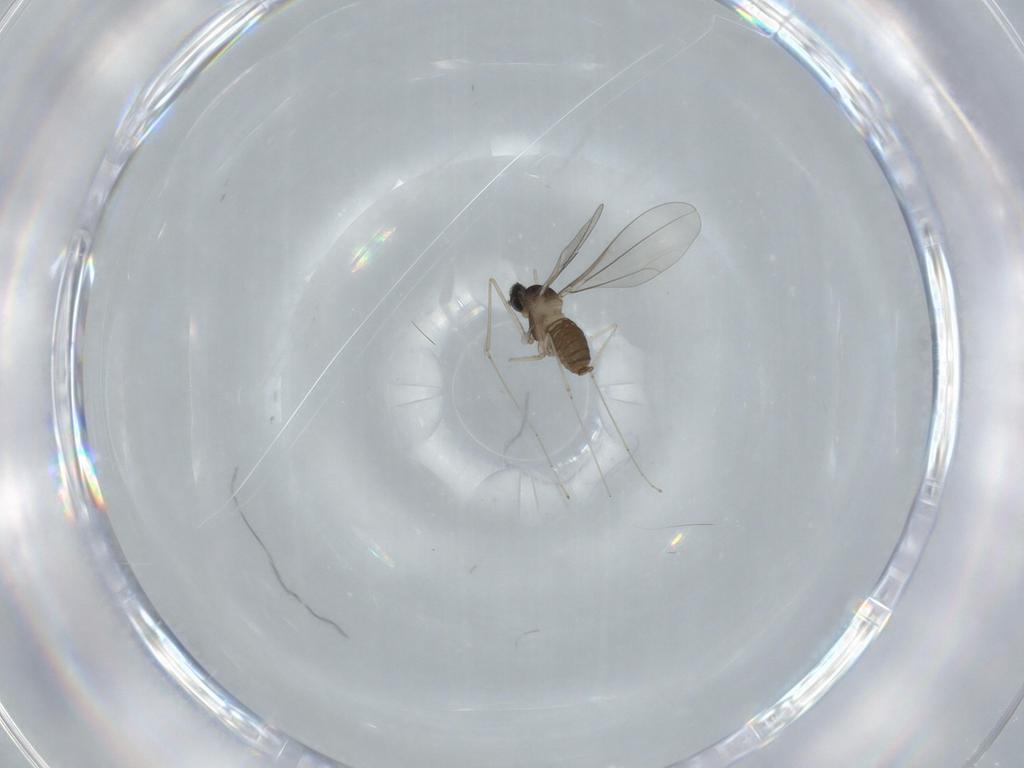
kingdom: Animalia
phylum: Arthropoda
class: Insecta
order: Diptera
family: Cecidomyiidae
